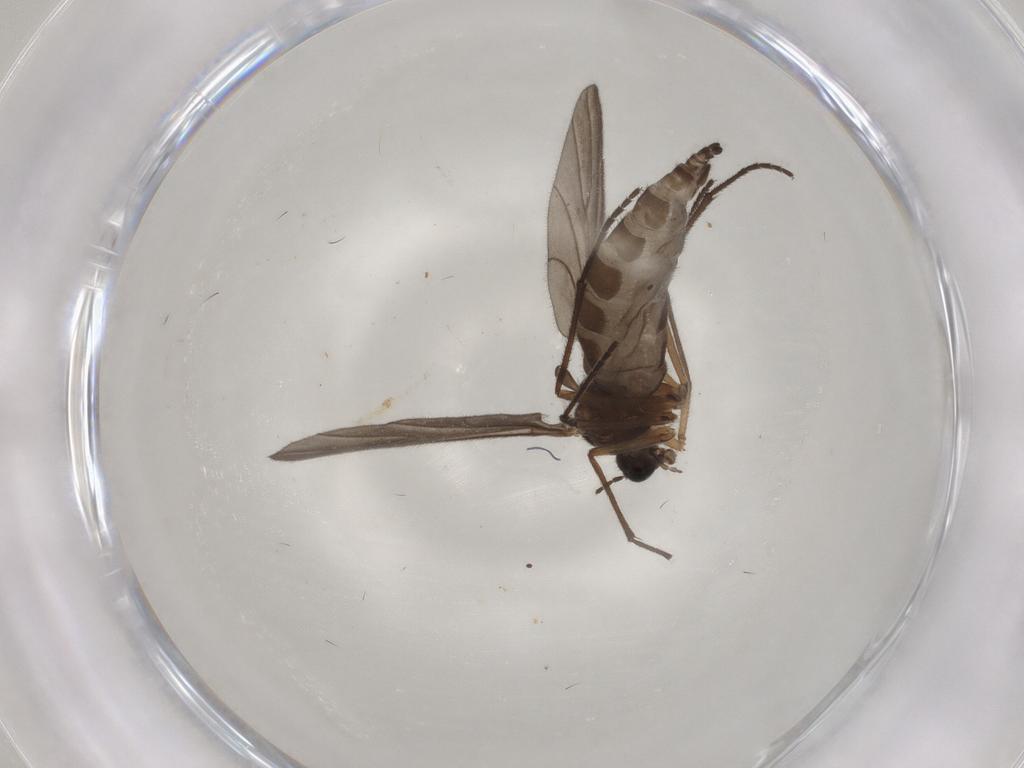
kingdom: Animalia
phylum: Arthropoda
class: Insecta
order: Diptera
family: Sciaridae
